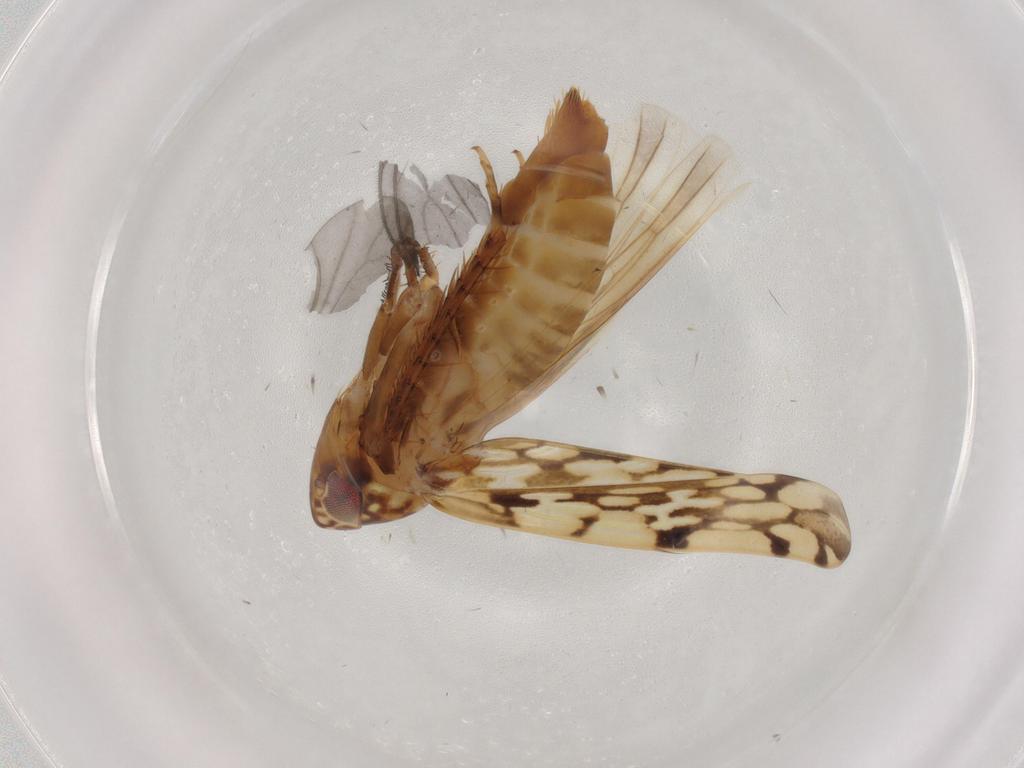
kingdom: Animalia
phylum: Arthropoda
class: Insecta
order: Hemiptera
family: Cicadellidae
